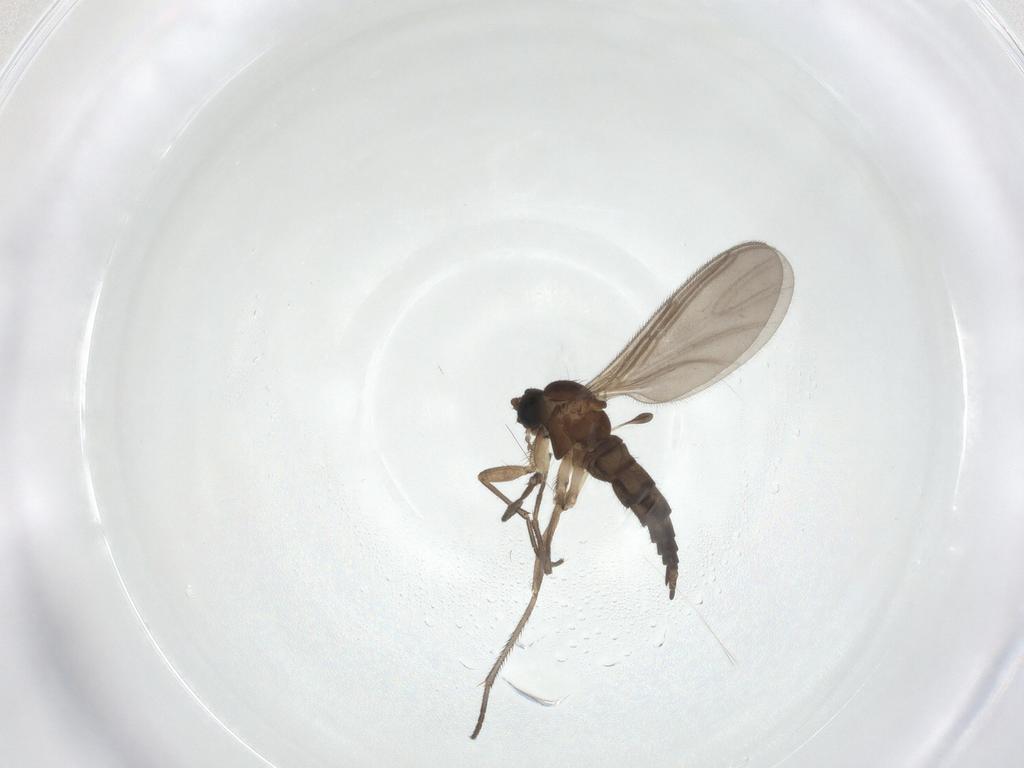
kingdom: Animalia
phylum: Arthropoda
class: Insecta
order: Diptera
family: Sciaridae
